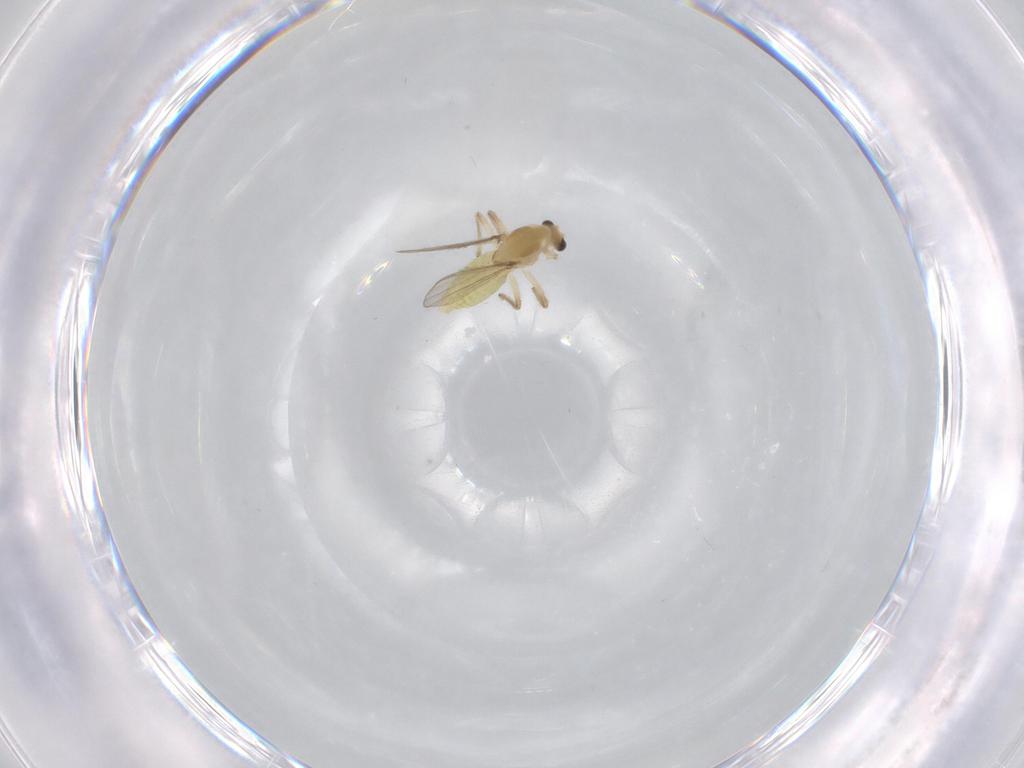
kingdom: Animalia
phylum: Arthropoda
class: Insecta
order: Diptera
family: Chironomidae
